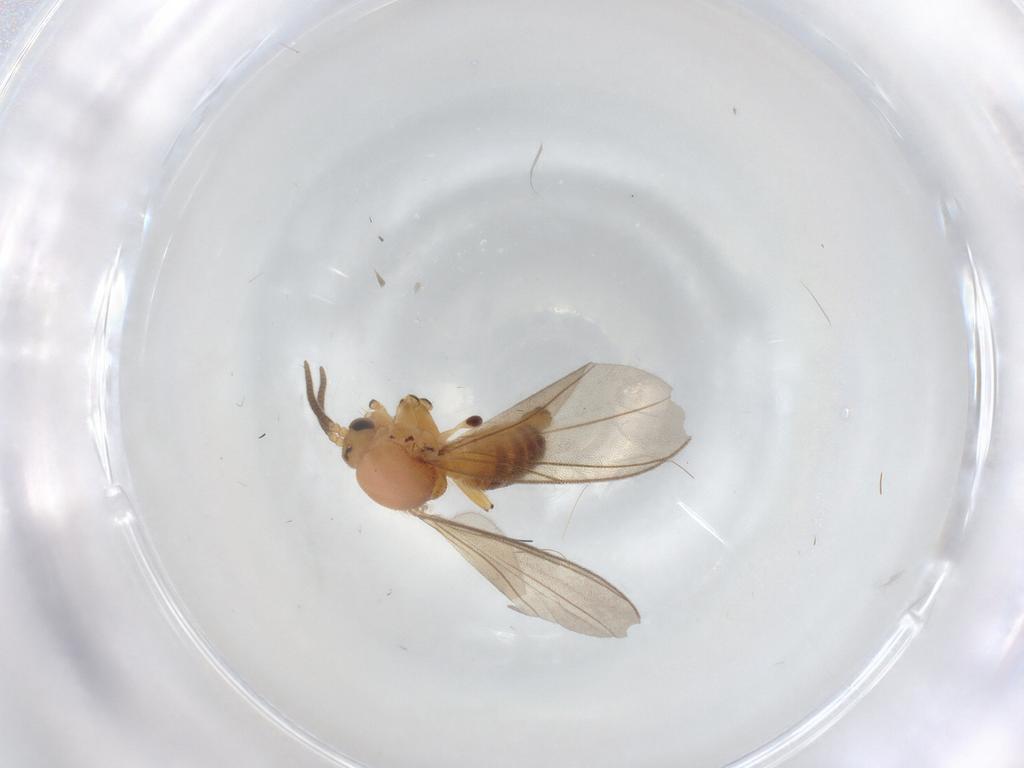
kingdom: Animalia
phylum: Arthropoda
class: Insecta
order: Diptera
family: Mycetophilidae
